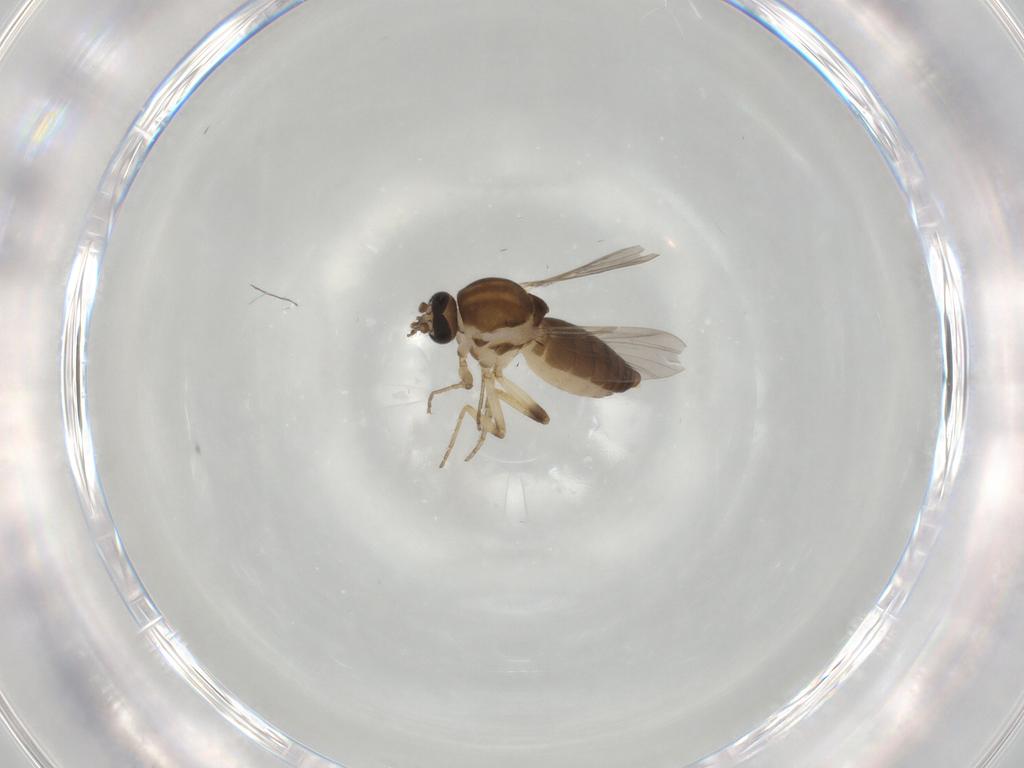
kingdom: Animalia
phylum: Arthropoda
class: Insecta
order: Diptera
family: Ceratopogonidae
